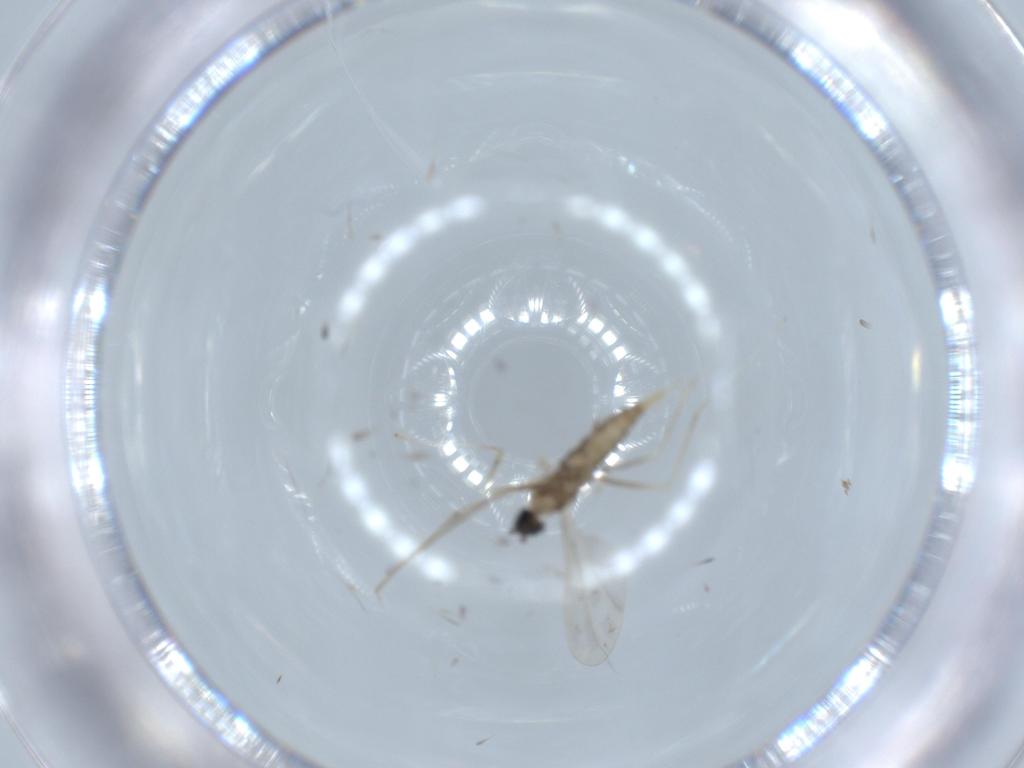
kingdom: Animalia
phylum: Arthropoda
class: Insecta
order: Diptera
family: Cecidomyiidae
